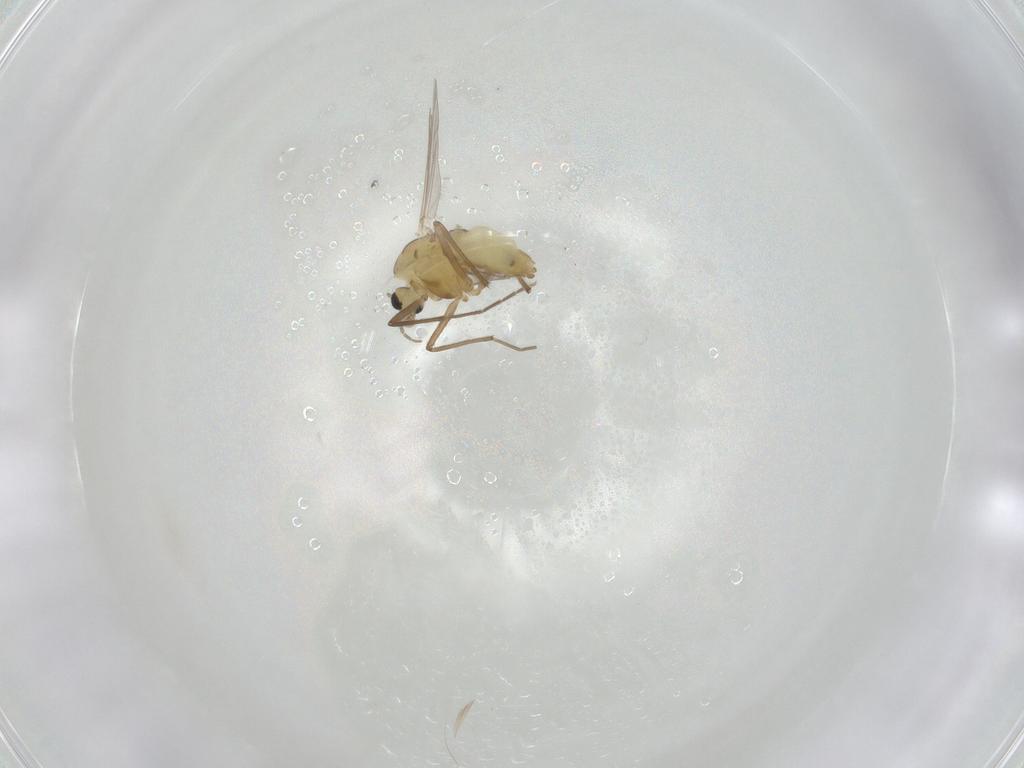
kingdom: Animalia
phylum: Arthropoda
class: Insecta
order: Diptera
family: Chironomidae
